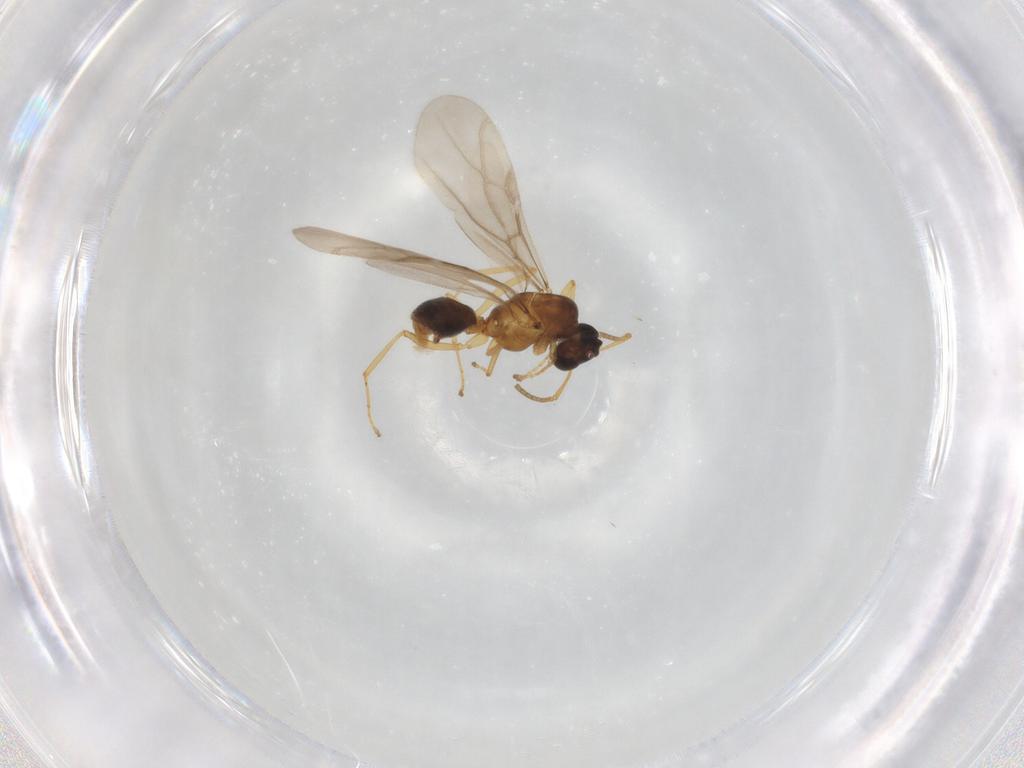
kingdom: Animalia
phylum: Arthropoda
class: Insecta
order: Hymenoptera
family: Formicidae
